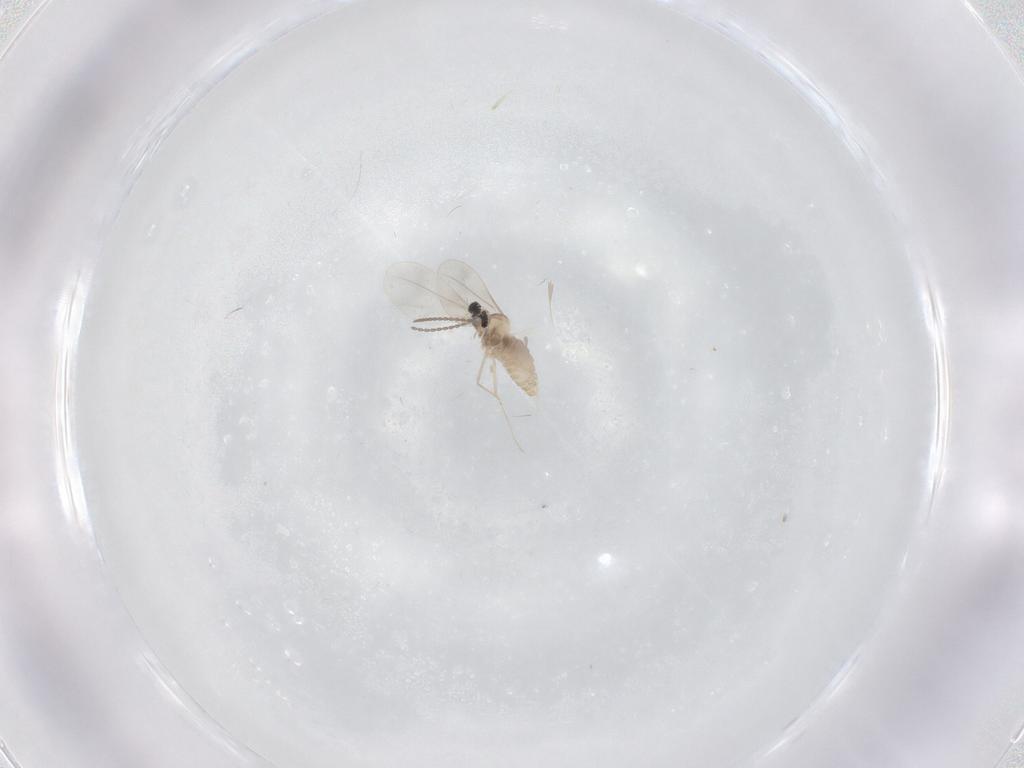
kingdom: Animalia
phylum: Arthropoda
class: Insecta
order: Diptera
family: Cecidomyiidae
